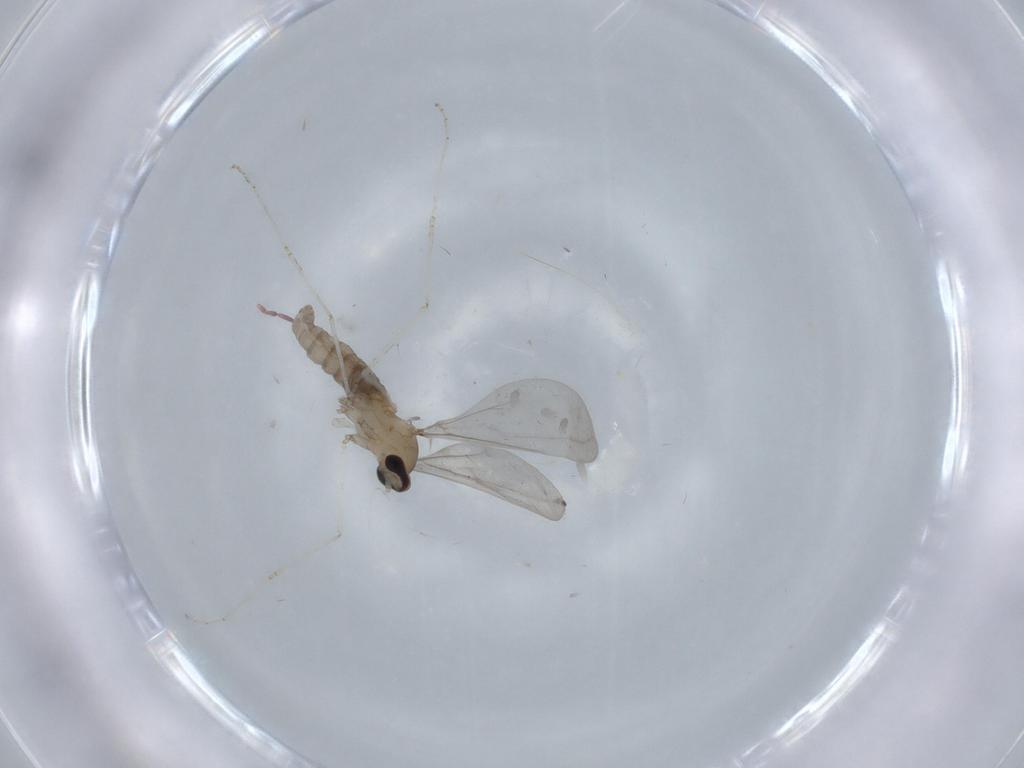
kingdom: Animalia
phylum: Arthropoda
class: Insecta
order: Diptera
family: Cecidomyiidae
